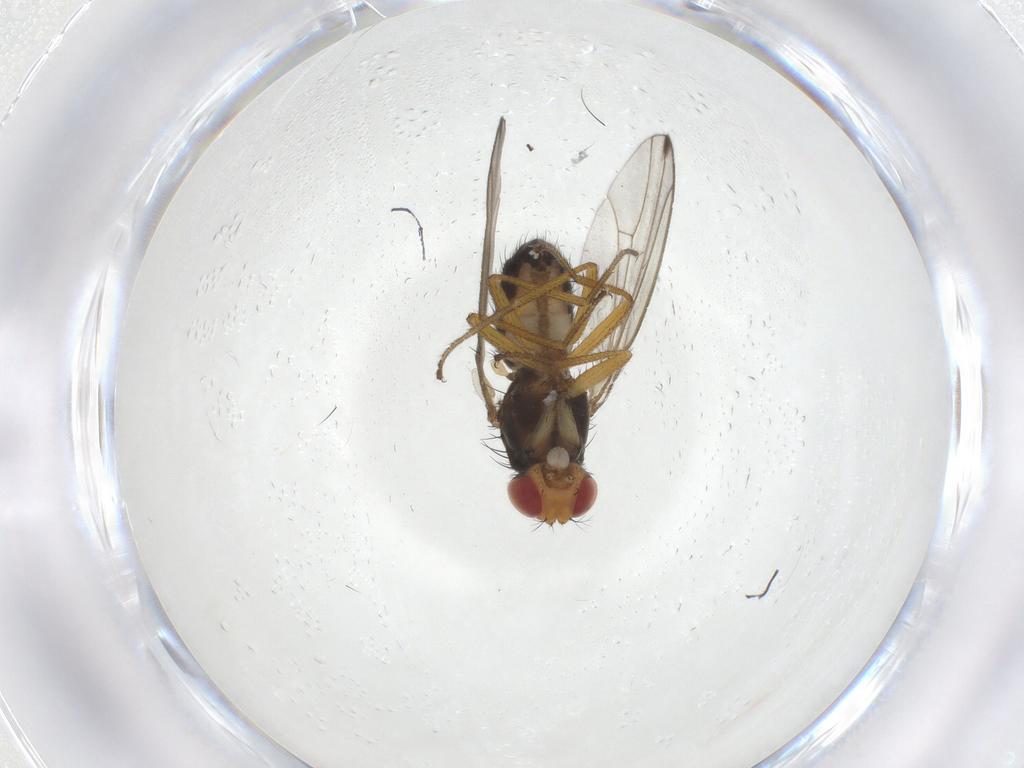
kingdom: Animalia
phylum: Arthropoda
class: Insecta
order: Diptera
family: Drosophilidae
